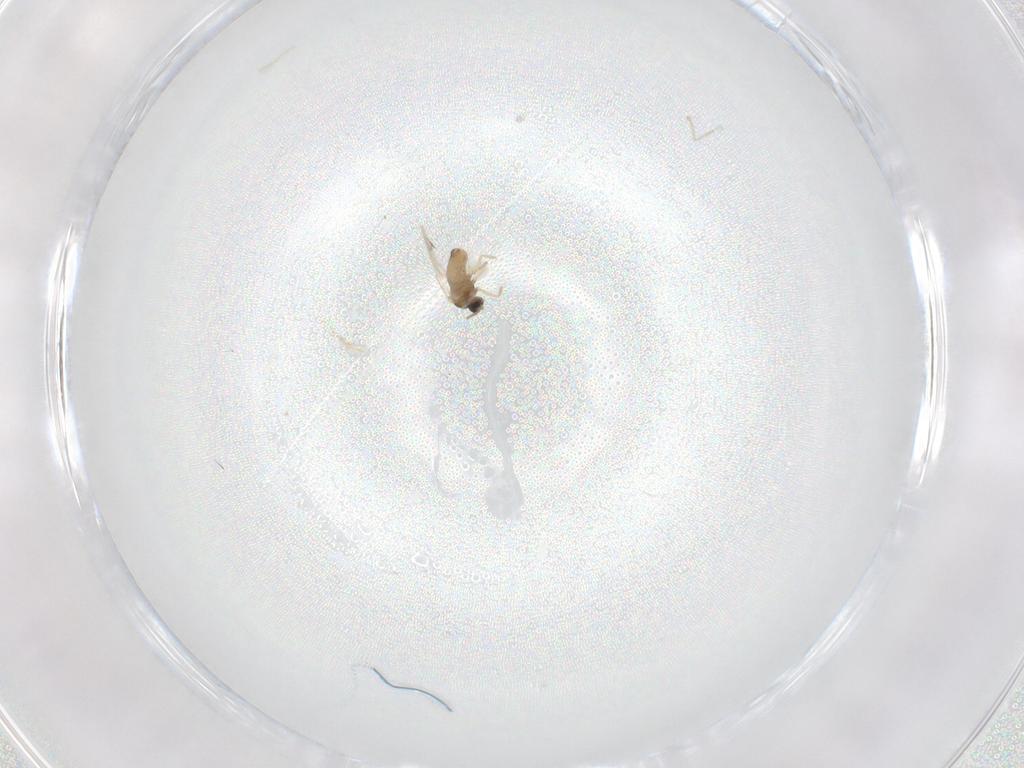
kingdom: Animalia
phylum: Arthropoda
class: Insecta
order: Diptera
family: Cecidomyiidae
